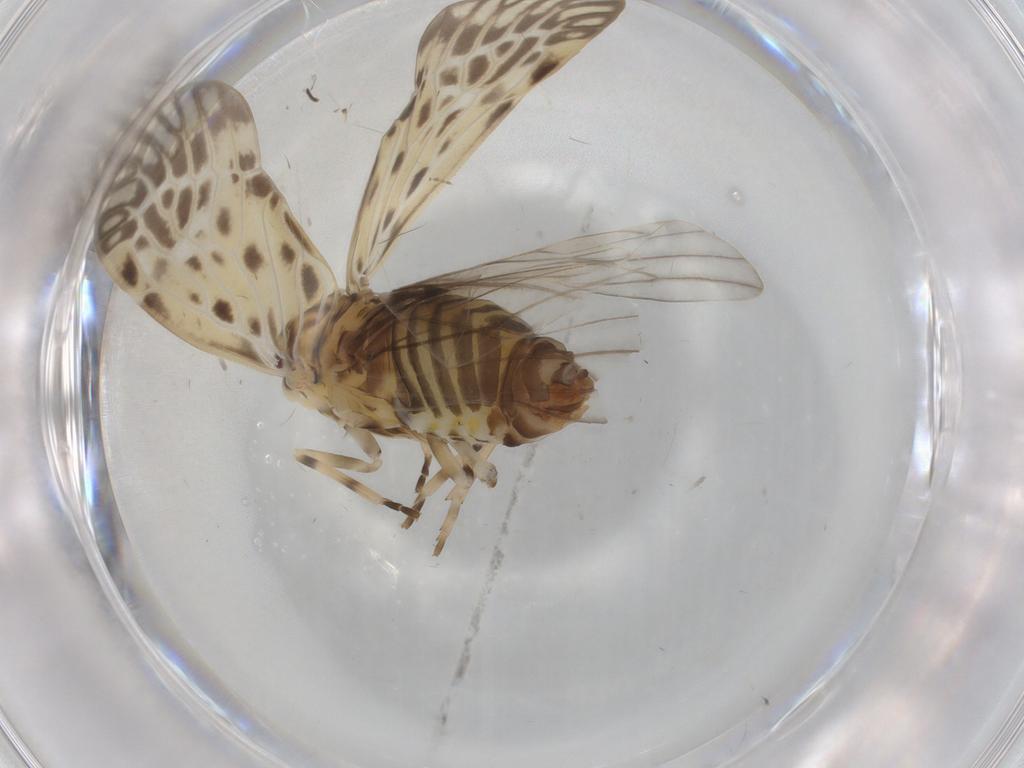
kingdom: Animalia
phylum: Arthropoda
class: Insecta
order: Hemiptera
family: Derbidae
